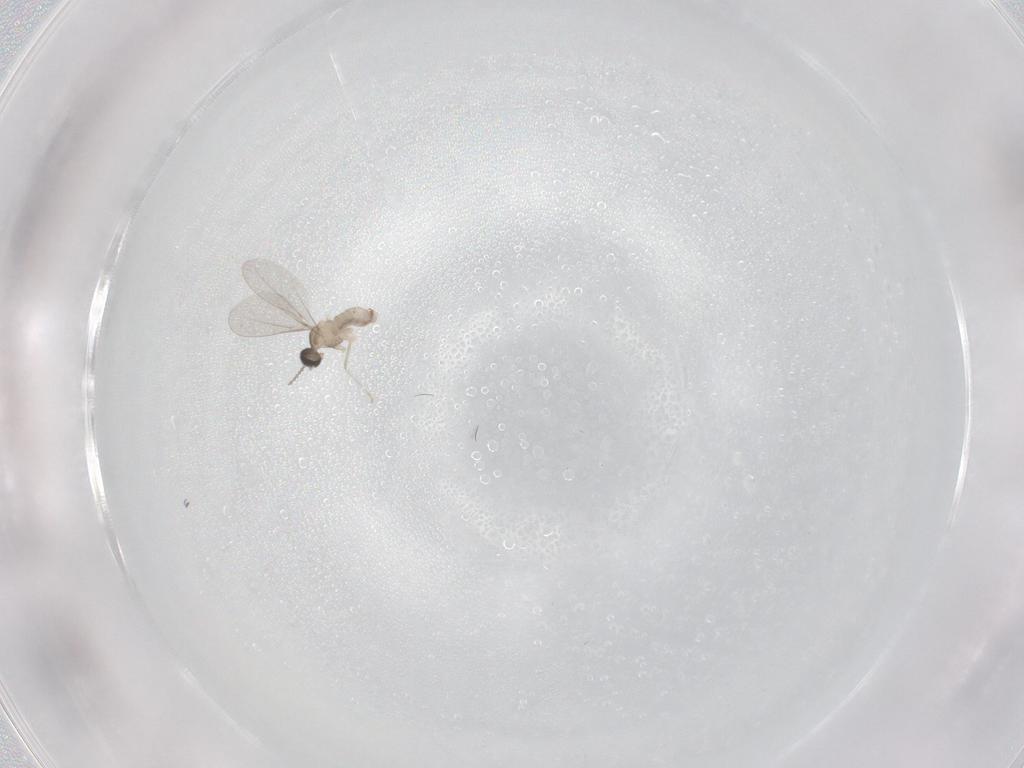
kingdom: Animalia
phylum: Arthropoda
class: Insecta
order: Diptera
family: Cecidomyiidae
